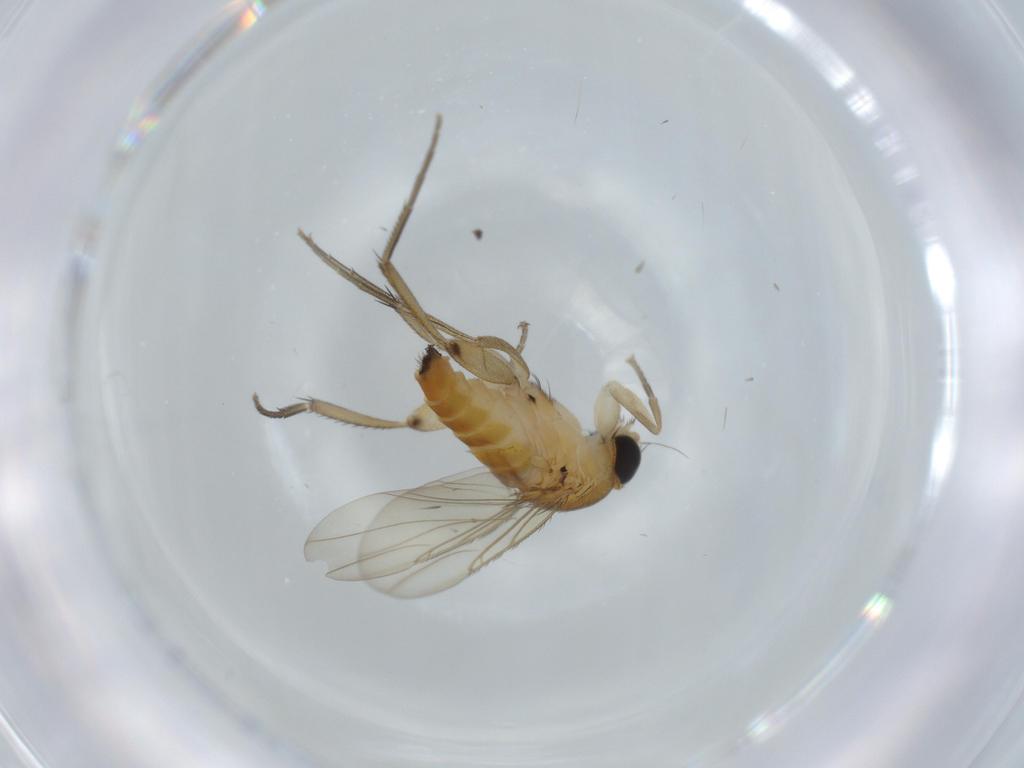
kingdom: Animalia
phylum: Arthropoda
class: Insecta
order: Diptera
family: Phoridae
